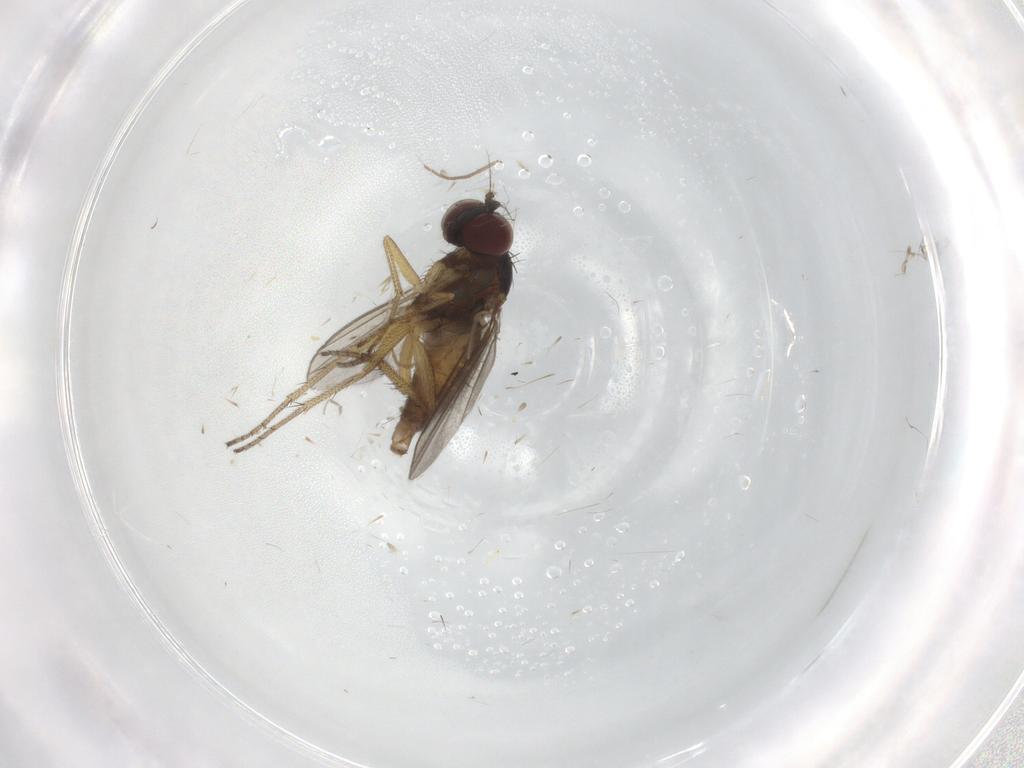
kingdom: Animalia
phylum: Arthropoda
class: Insecta
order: Diptera
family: Cecidomyiidae
